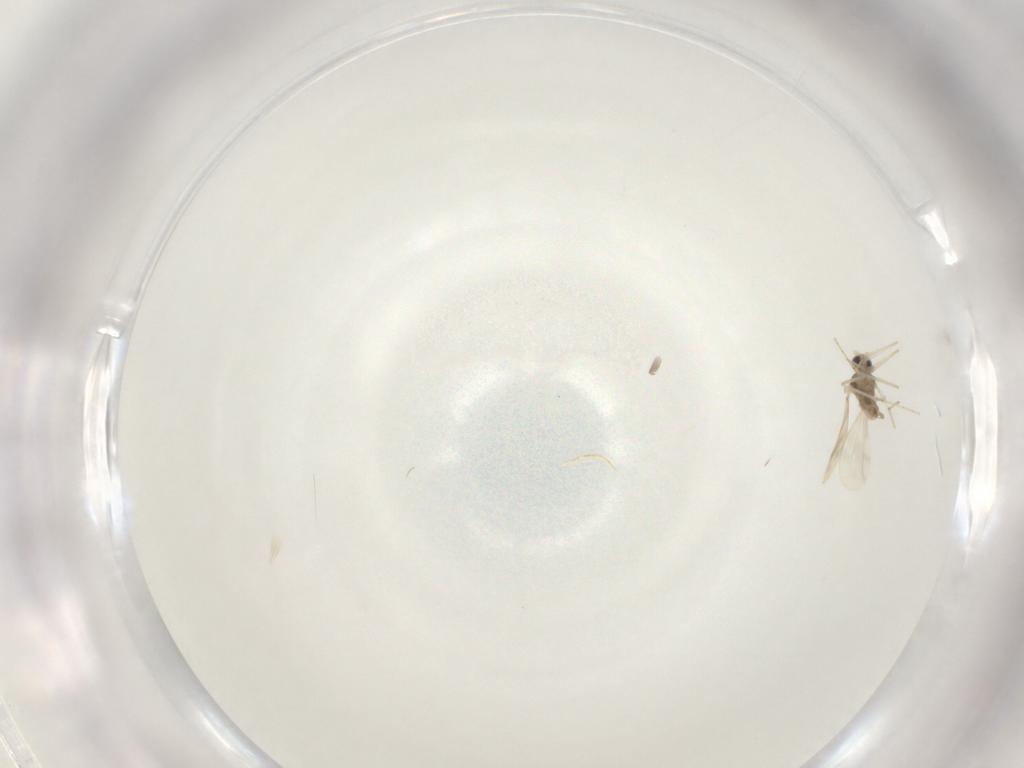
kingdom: Animalia
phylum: Arthropoda
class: Insecta
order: Diptera
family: Cecidomyiidae
